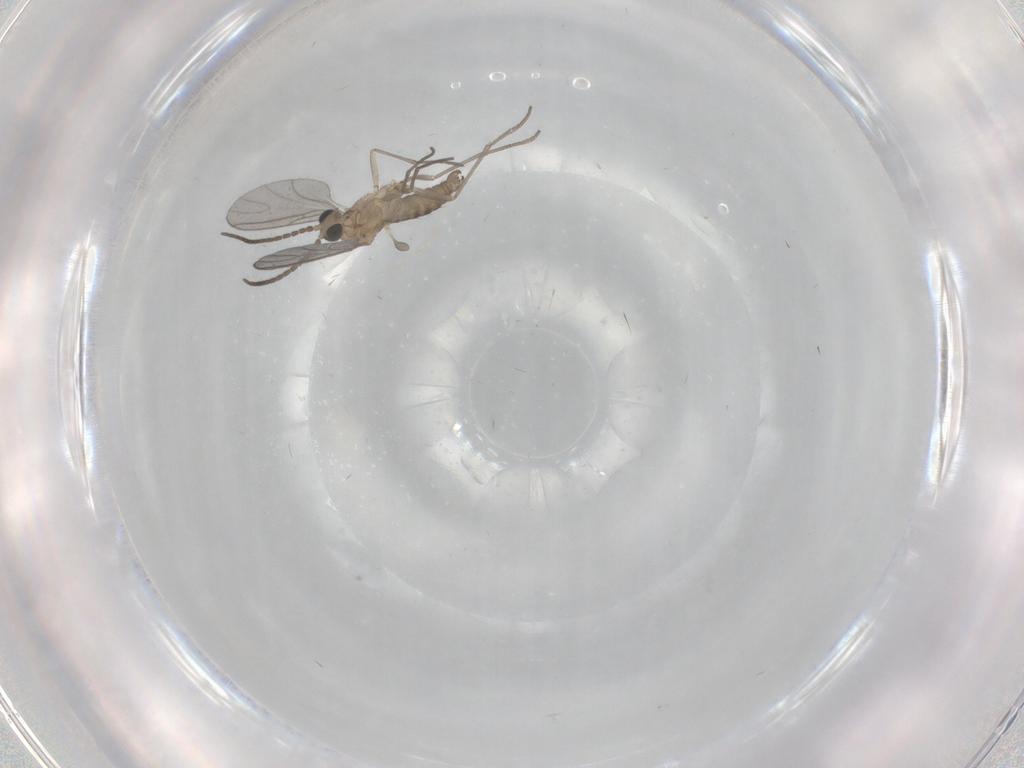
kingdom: Animalia
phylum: Arthropoda
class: Insecta
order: Diptera
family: Sciaridae
